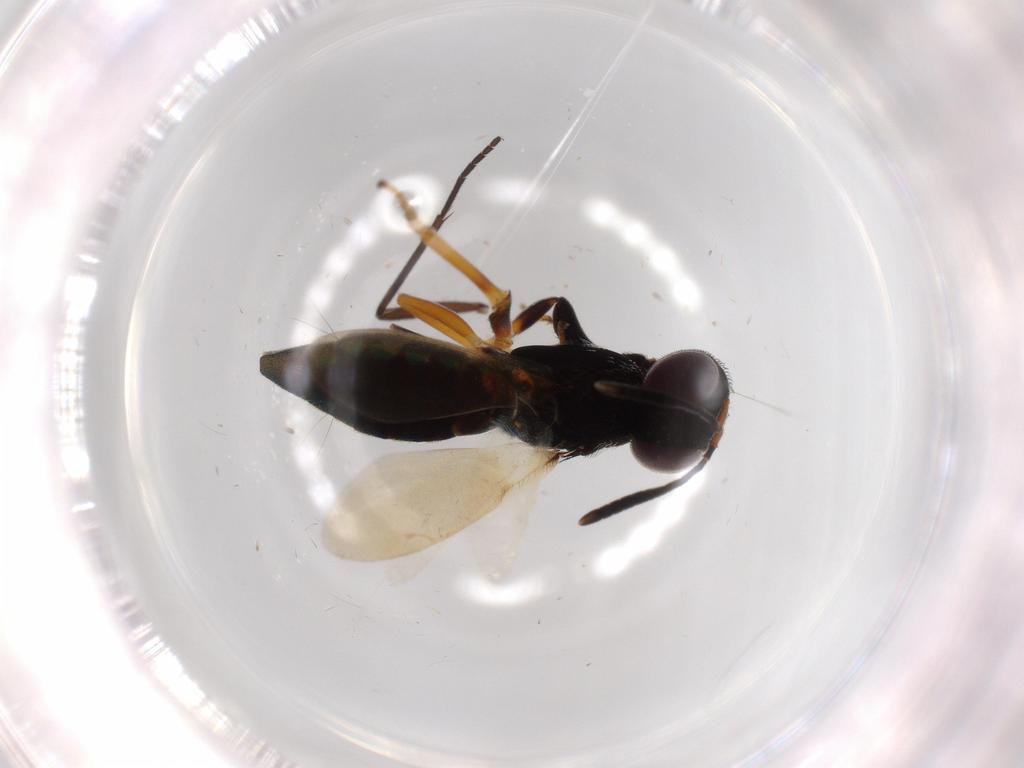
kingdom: Animalia
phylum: Arthropoda
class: Insecta
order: Hymenoptera
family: Eupelmidae
